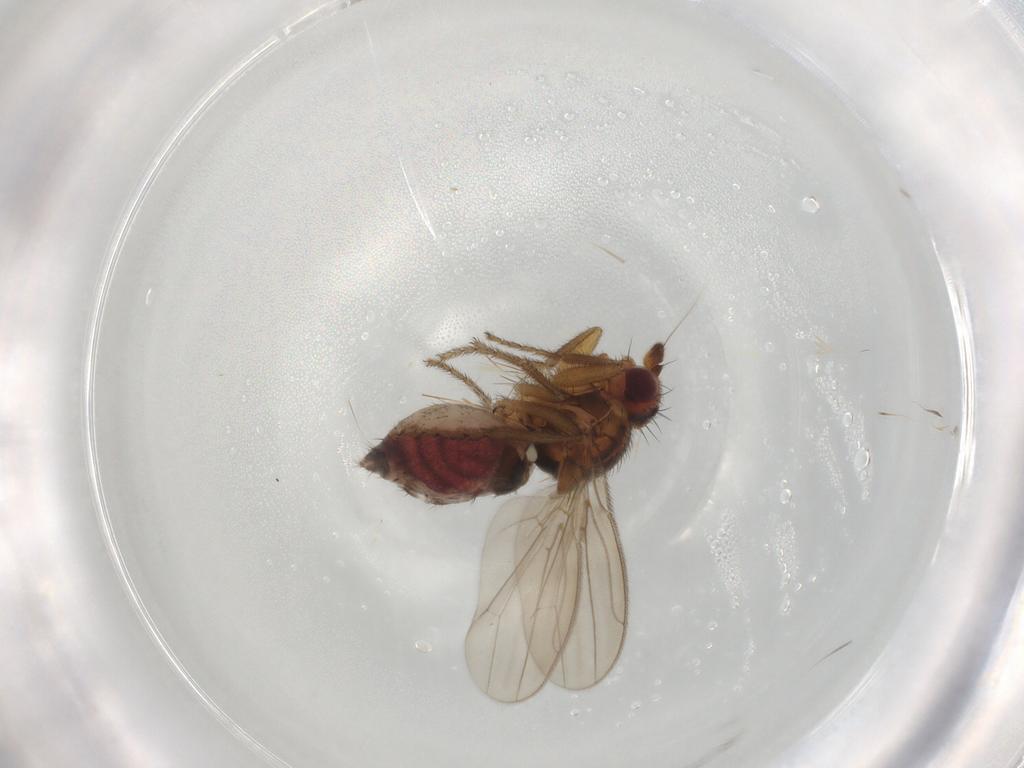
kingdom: Animalia
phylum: Arthropoda
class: Insecta
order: Diptera
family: Sphaeroceridae
